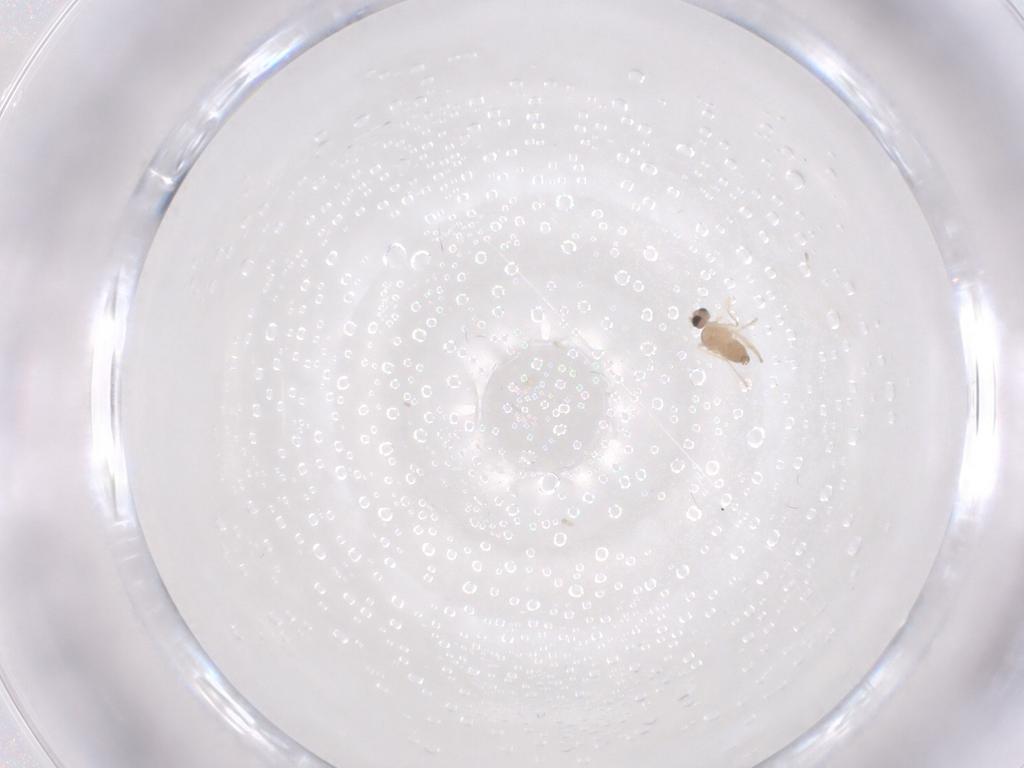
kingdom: Animalia
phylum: Arthropoda
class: Insecta
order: Diptera
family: Cecidomyiidae
